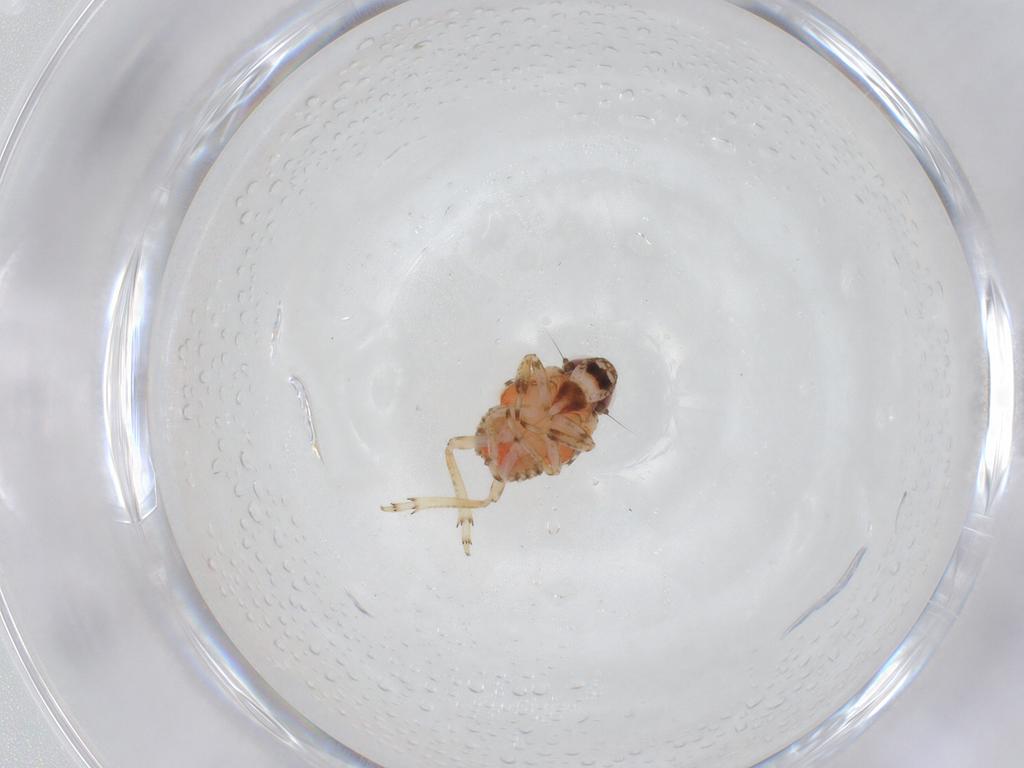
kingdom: Animalia
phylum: Arthropoda
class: Insecta
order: Hemiptera
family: Issidae
